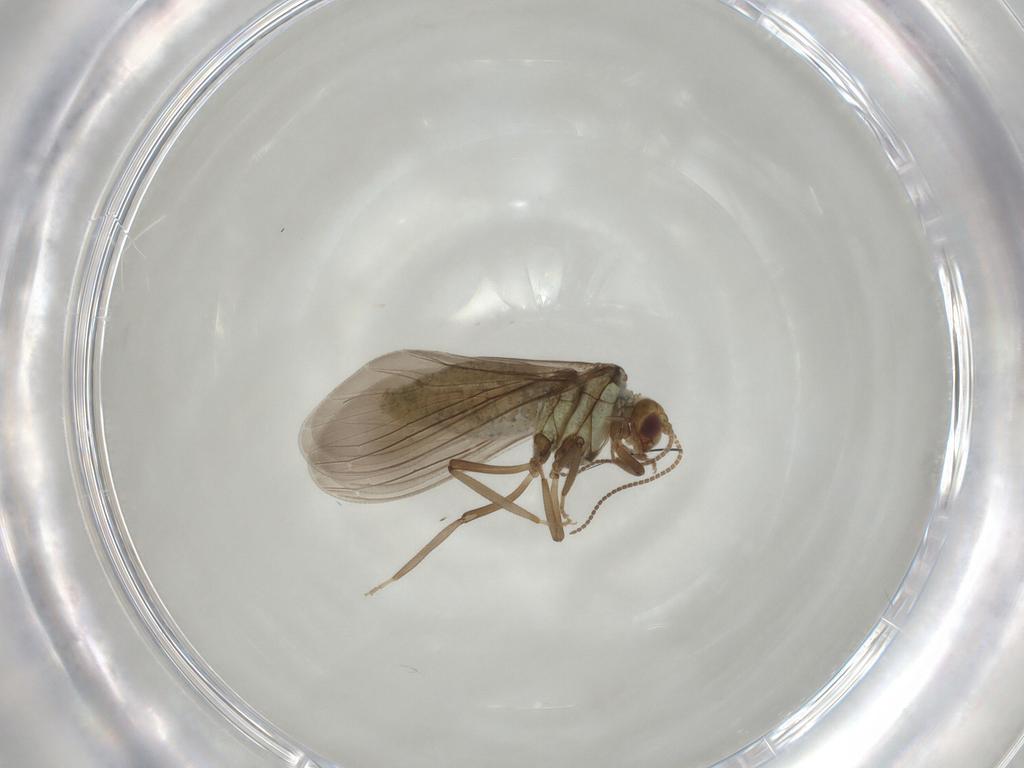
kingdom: Animalia
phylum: Arthropoda
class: Insecta
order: Neuroptera
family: Coniopterygidae
